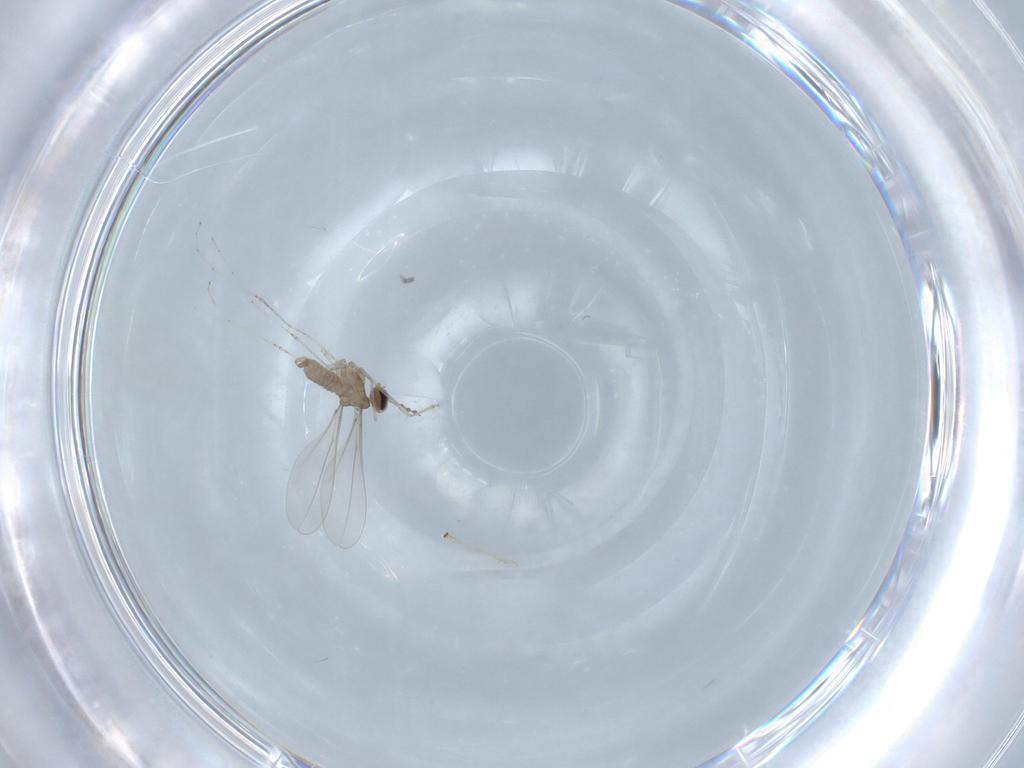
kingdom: Animalia
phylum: Arthropoda
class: Insecta
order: Diptera
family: Cecidomyiidae
